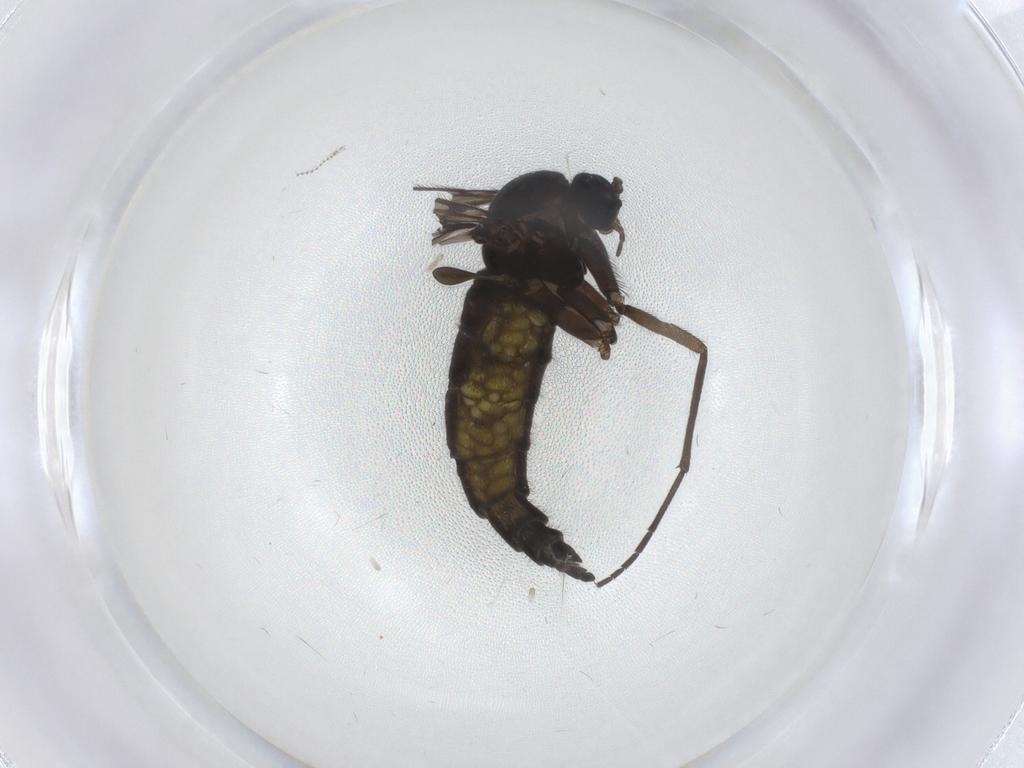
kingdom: Animalia
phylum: Arthropoda
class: Insecta
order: Diptera
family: Sciaridae
